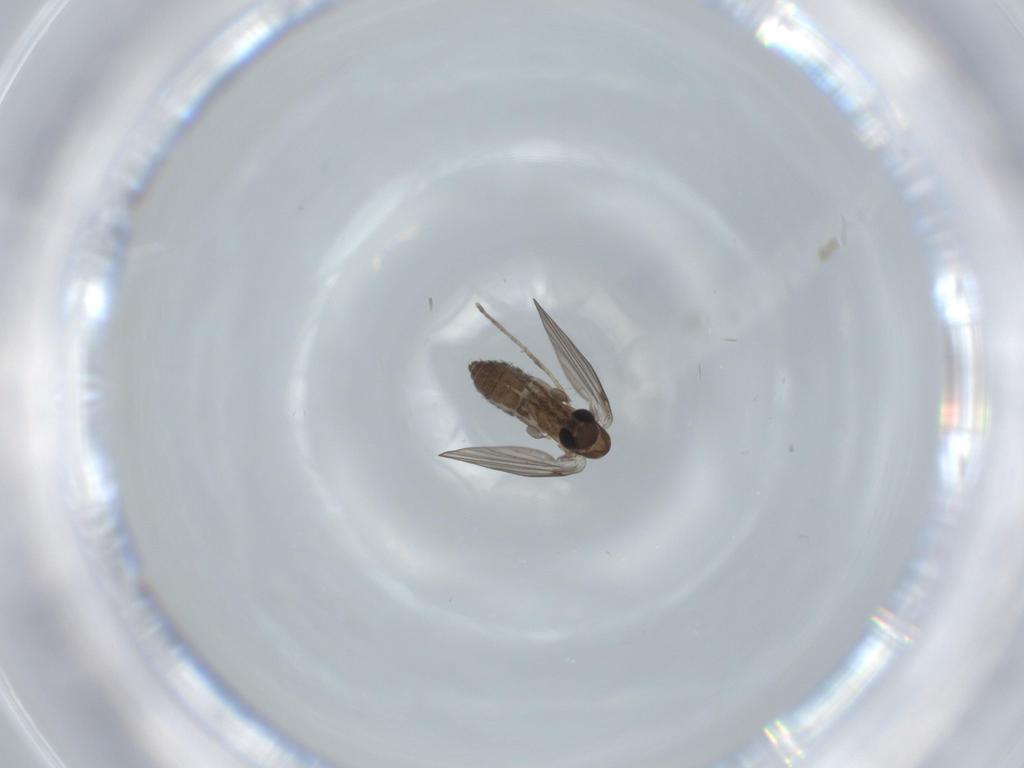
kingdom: Animalia
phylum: Arthropoda
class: Insecta
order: Diptera
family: Psychodidae
